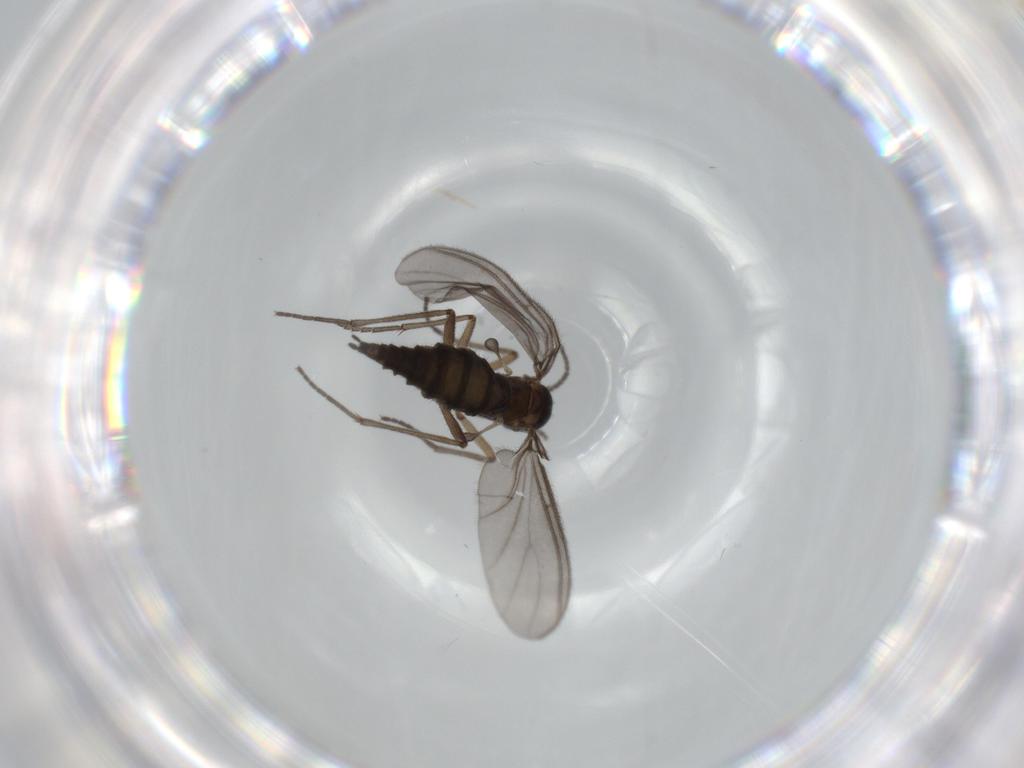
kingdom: Animalia
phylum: Arthropoda
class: Insecta
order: Diptera
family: Sciaridae
